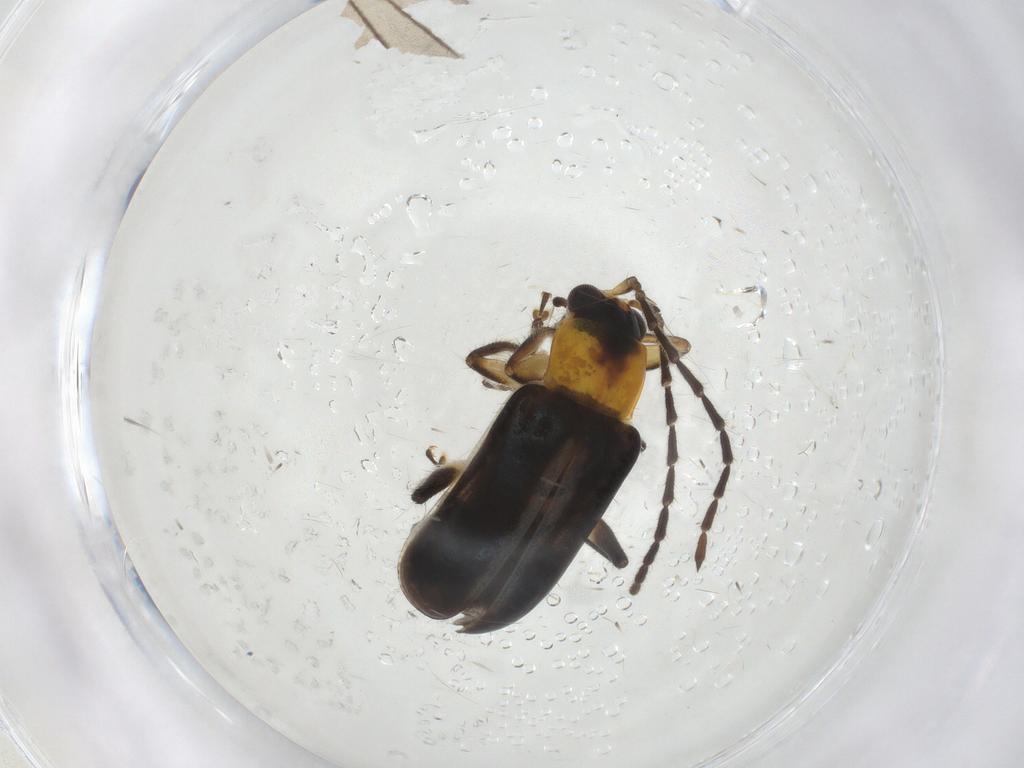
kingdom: Animalia
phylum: Arthropoda
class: Insecta
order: Coleoptera
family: Chrysomelidae
